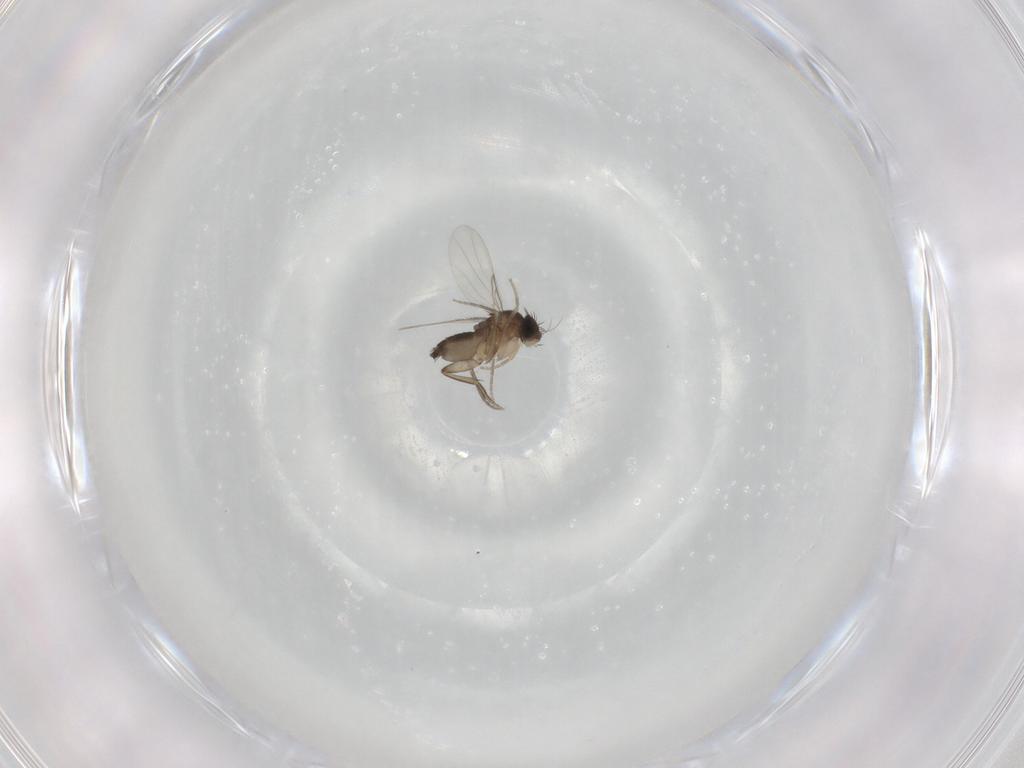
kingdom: Animalia
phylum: Arthropoda
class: Insecta
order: Diptera
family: Phoridae
